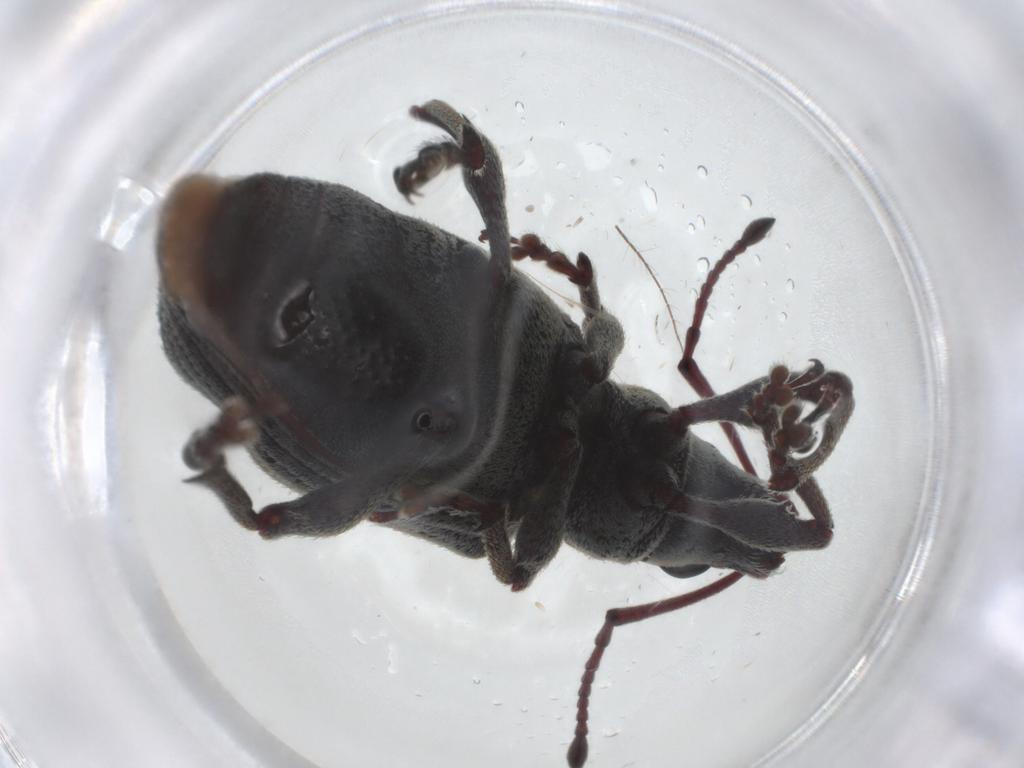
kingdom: Animalia
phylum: Arthropoda
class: Insecta
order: Coleoptera
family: Curculionidae
